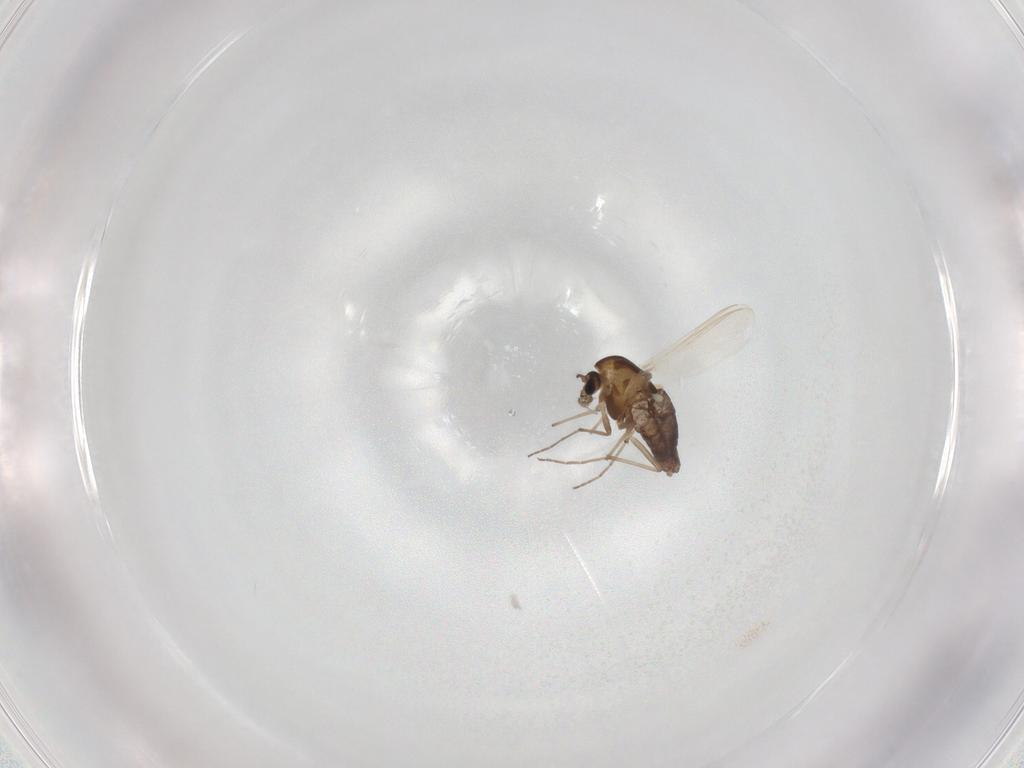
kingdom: Animalia
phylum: Arthropoda
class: Insecta
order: Diptera
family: Chironomidae
